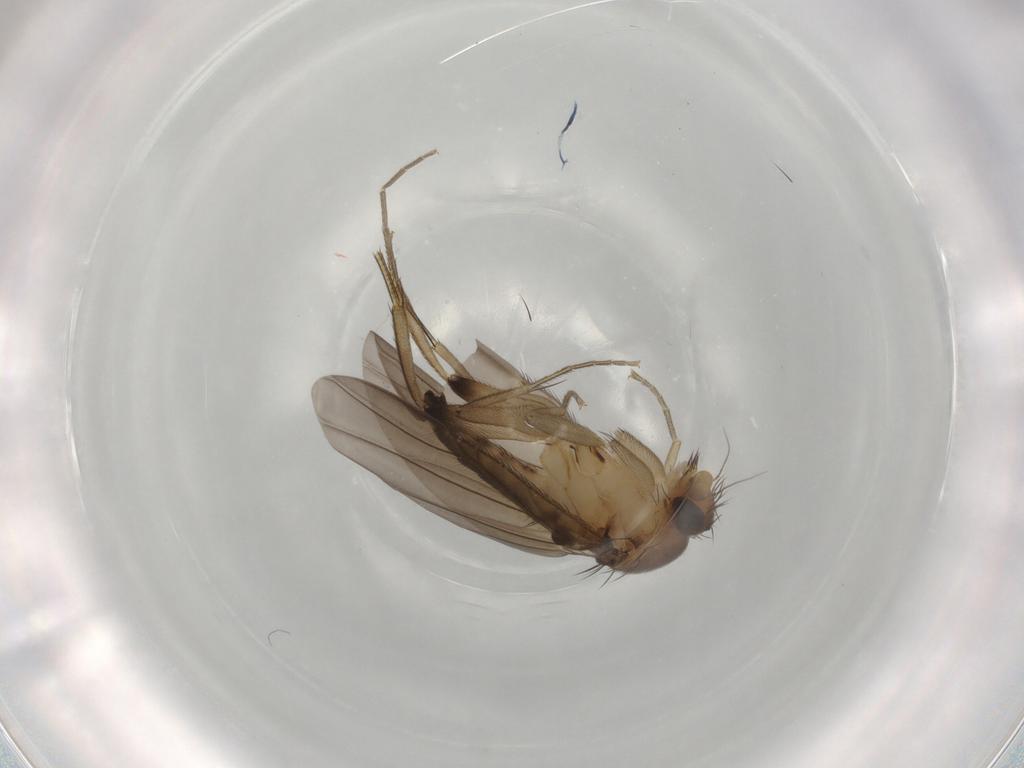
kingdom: Animalia
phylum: Arthropoda
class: Insecta
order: Diptera
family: Phoridae
